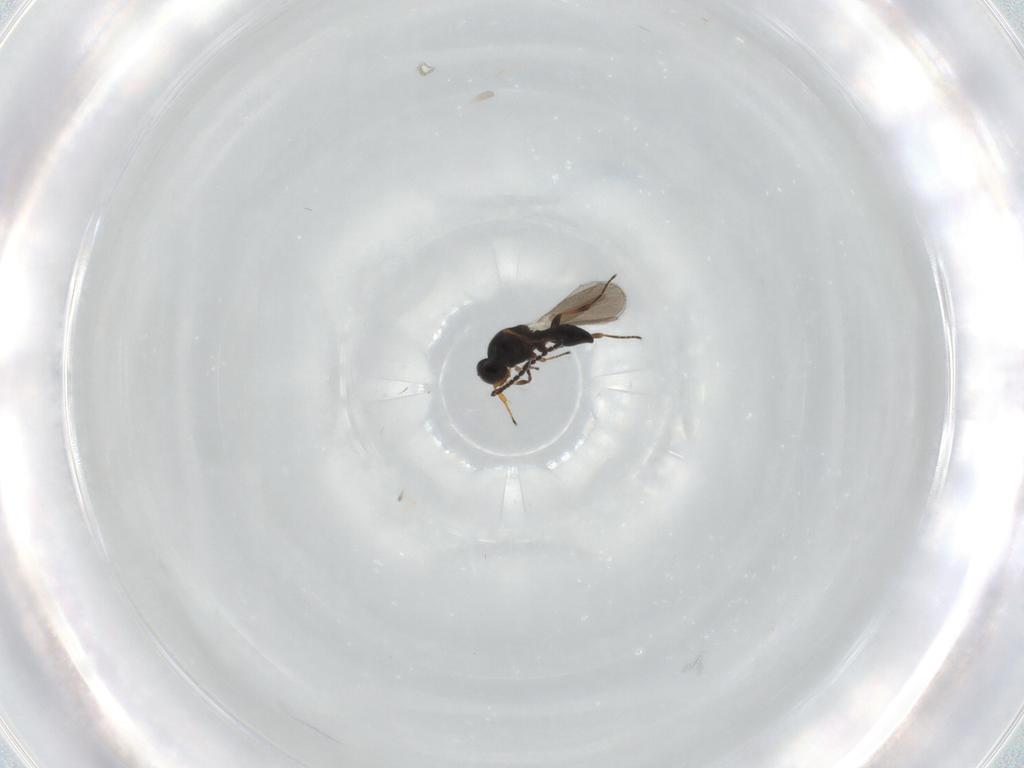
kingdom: Animalia
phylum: Arthropoda
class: Insecta
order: Hymenoptera
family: Platygastridae
